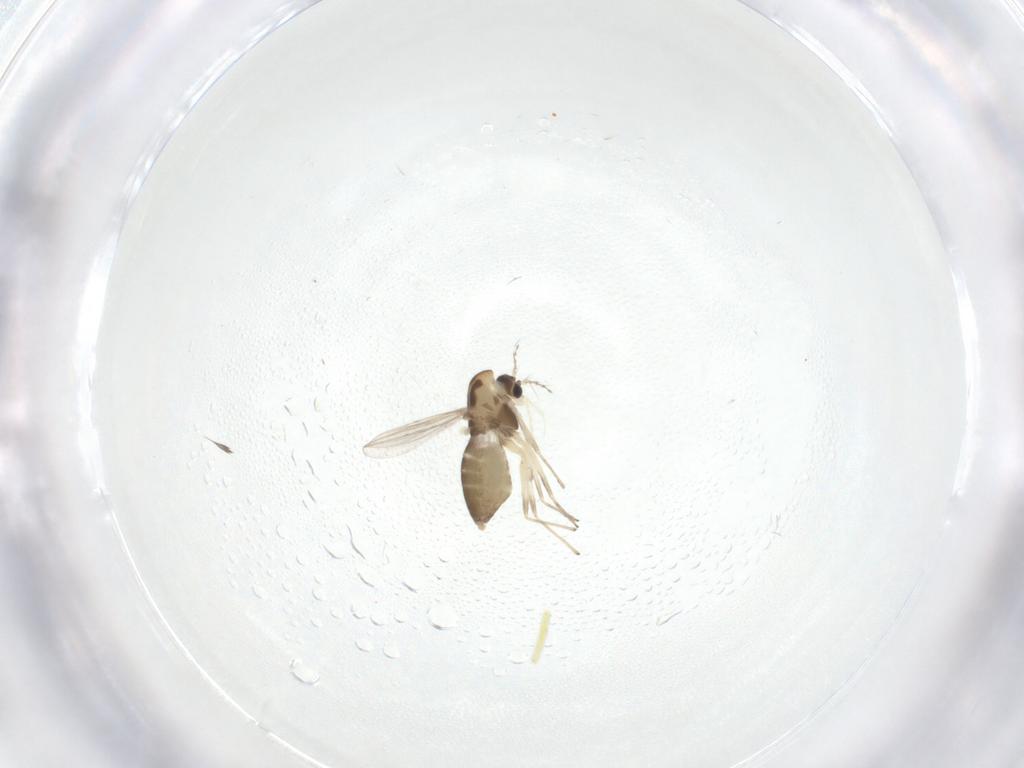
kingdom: Animalia
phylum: Arthropoda
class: Insecta
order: Diptera
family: Chironomidae
